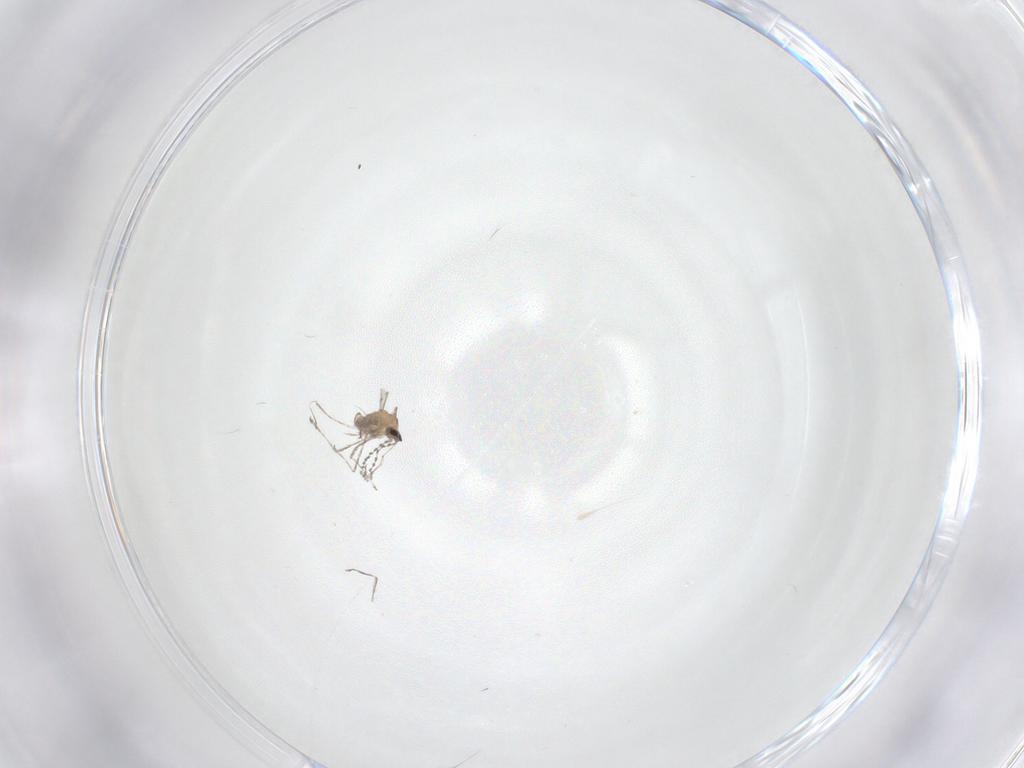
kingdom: Animalia
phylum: Arthropoda
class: Insecta
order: Diptera
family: Cecidomyiidae
